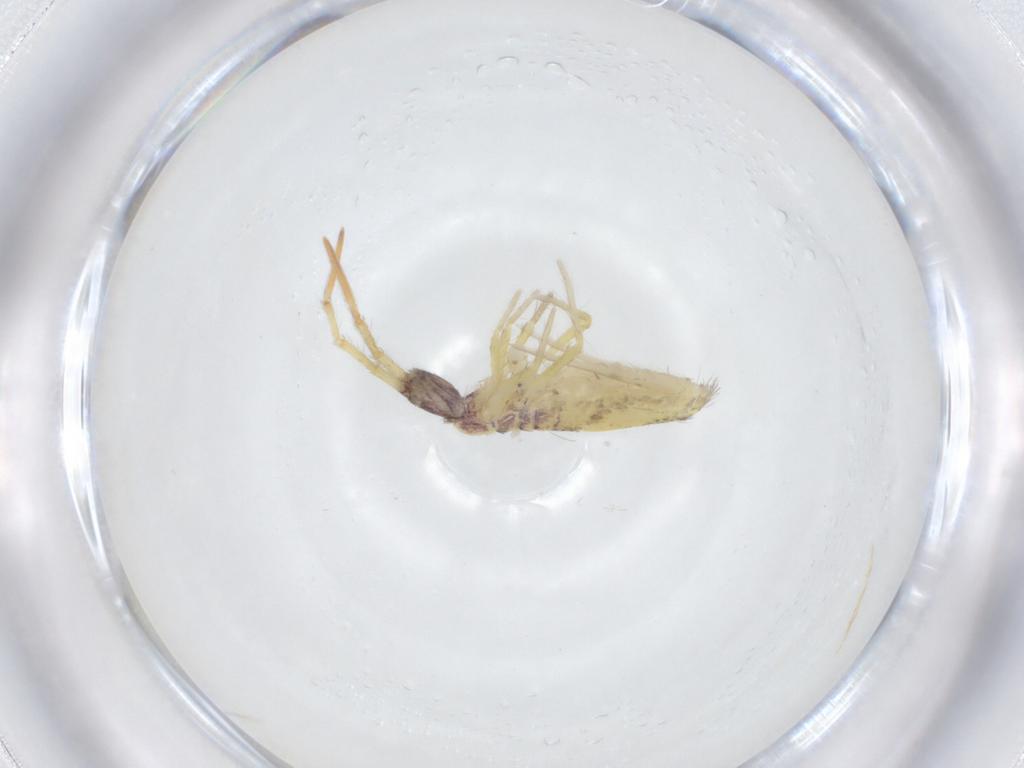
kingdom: Animalia
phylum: Arthropoda
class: Collembola
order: Entomobryomorpha
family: Entomobryidae
